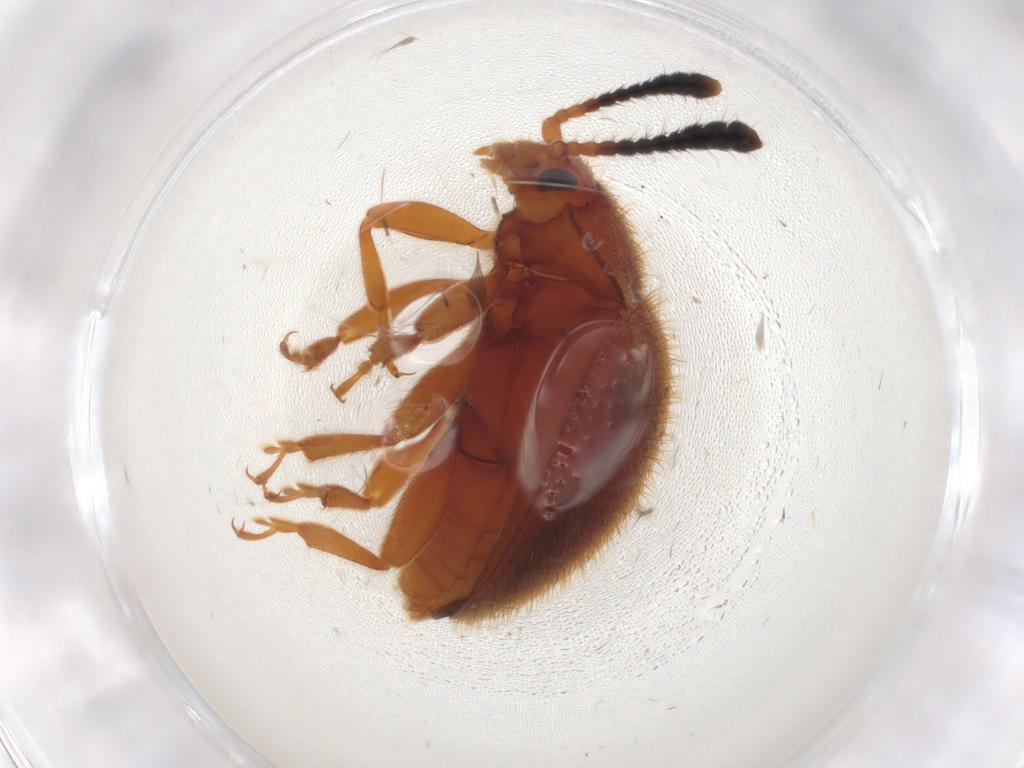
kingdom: Animalia
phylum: Arthropoda
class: Insecta
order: Coleoptera
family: Endomychidae
